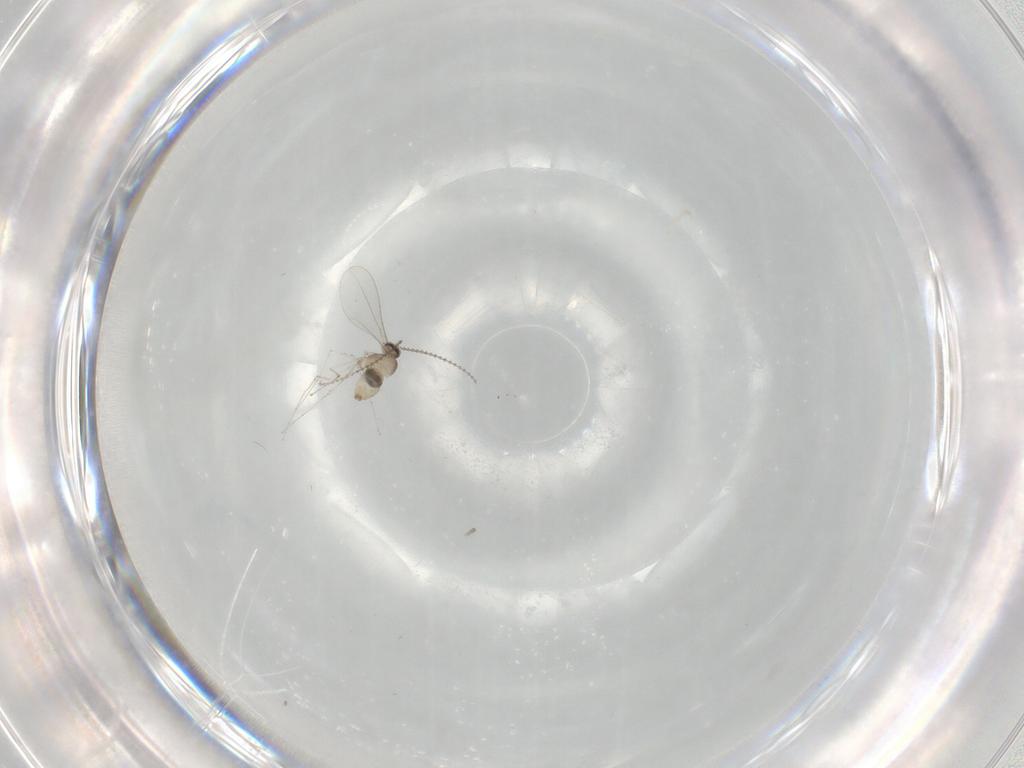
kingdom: Animalia
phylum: Arthropoda
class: Insecta
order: Diptera
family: Cecidomyiidae
